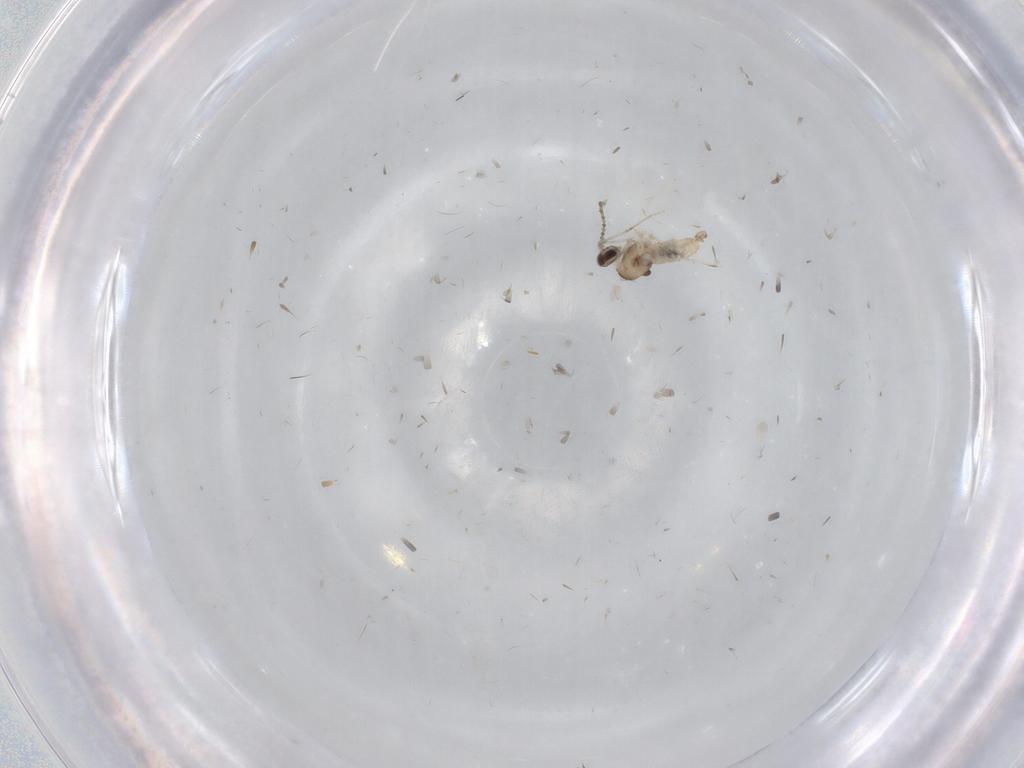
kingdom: Animalia
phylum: Arthropoda
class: Insecta
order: Diptera
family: Cecidomyiidae
